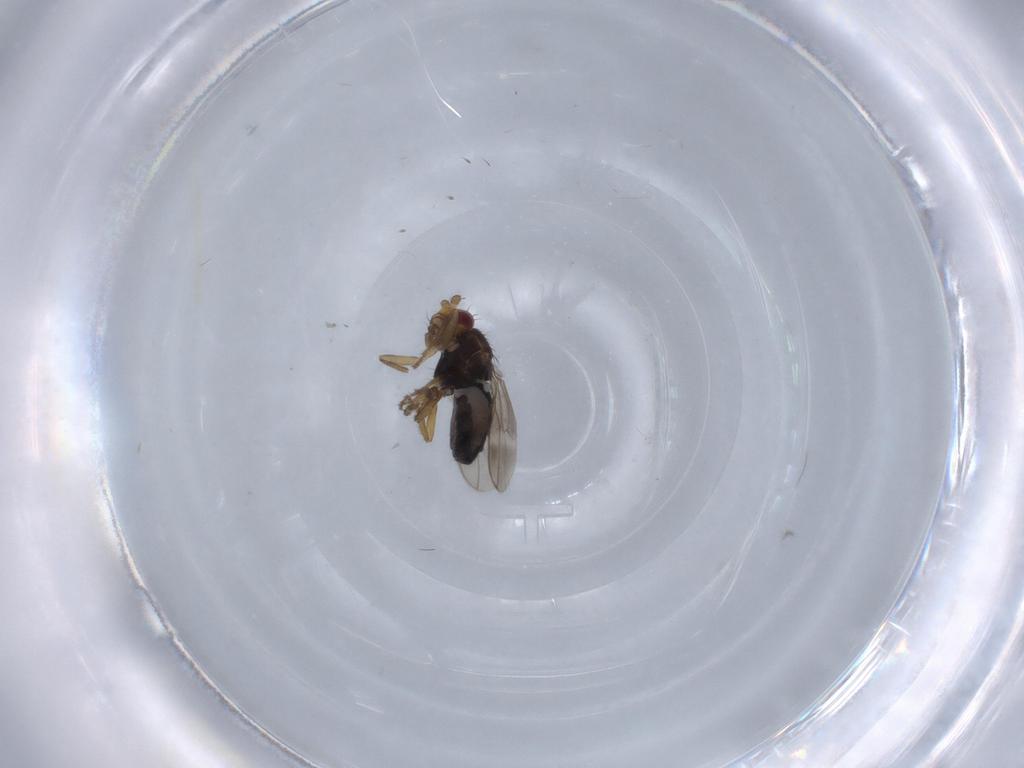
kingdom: Animalia
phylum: Arthropoda
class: Insecta
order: Diptera
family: Sphaeroceridae
